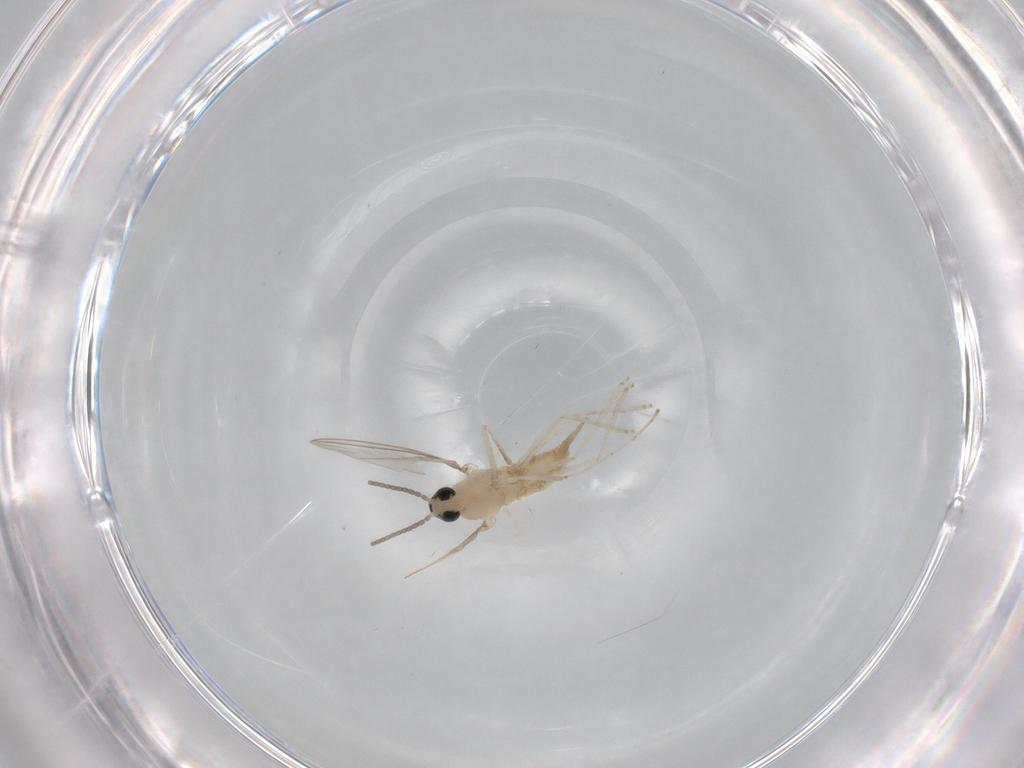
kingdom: Animalia
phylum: Arthropoda
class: Insecta
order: Diptera
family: Cecidomyiidae
